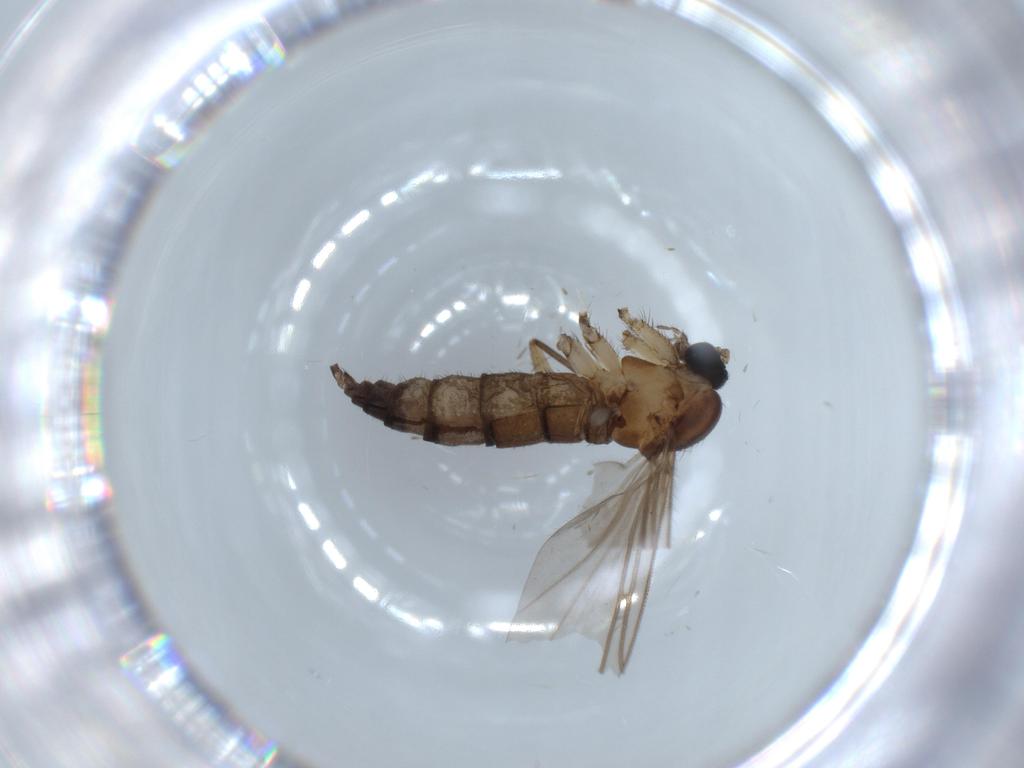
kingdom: Animalia
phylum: Arthropoda
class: Insecta
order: Diptera
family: Sciaridae
